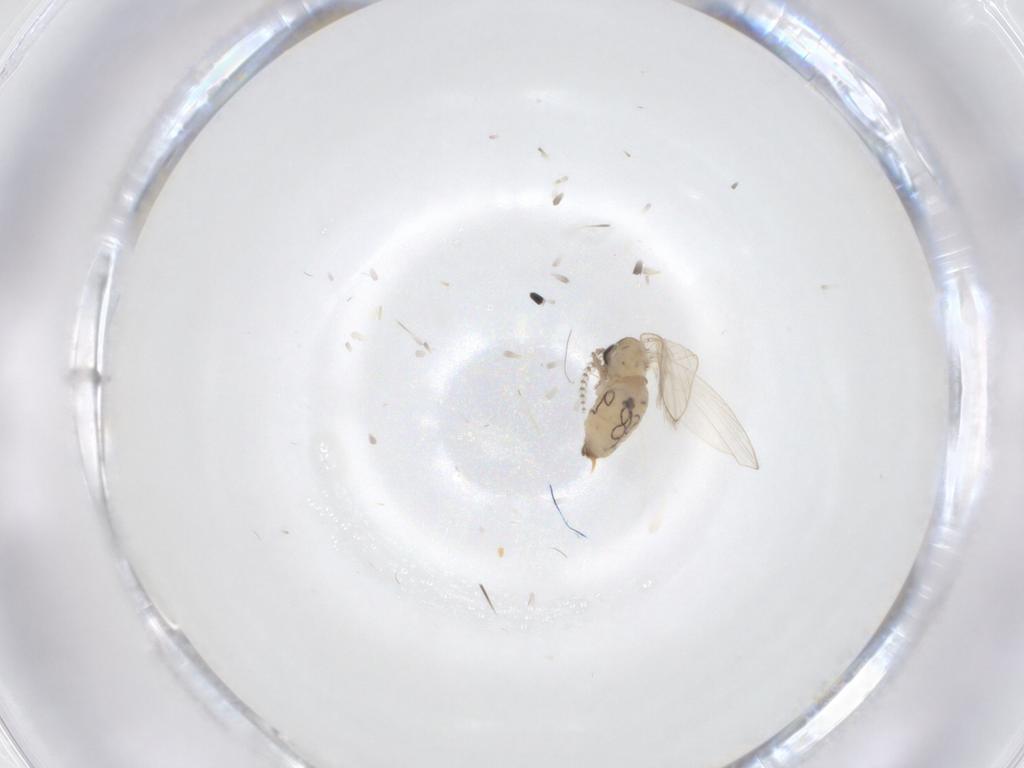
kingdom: Animalia
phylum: Arthropoda
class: Insecta
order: Diptera
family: Psychodidae
